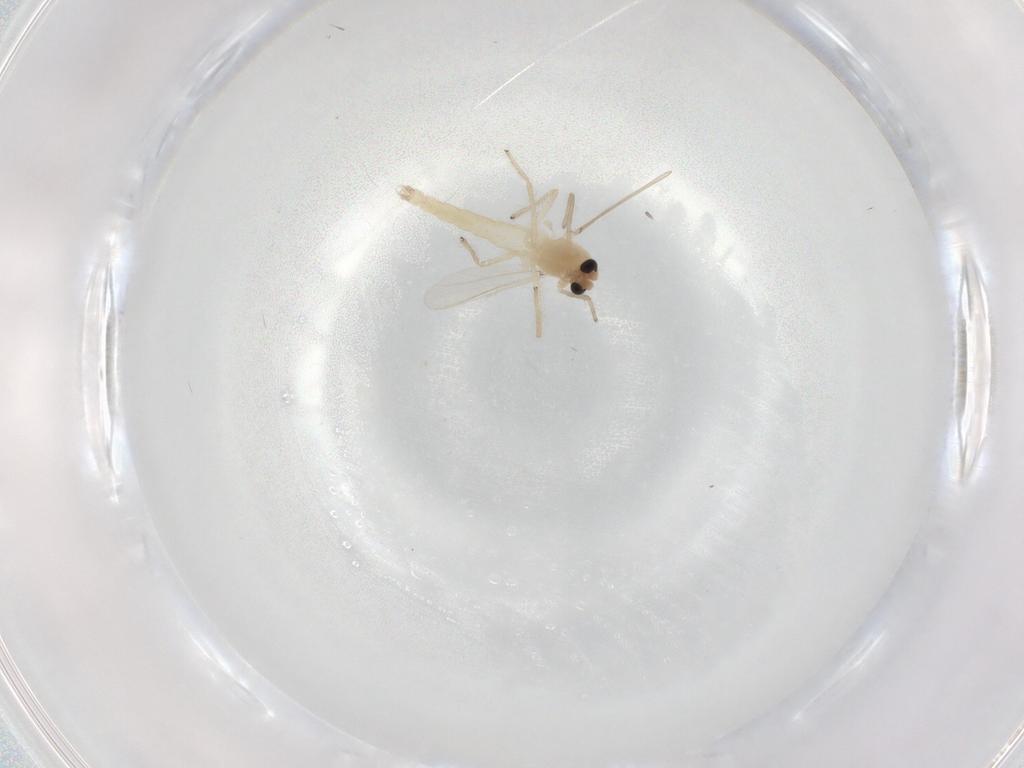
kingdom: Animalia
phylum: Arthropoda
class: Insecta
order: Diptera
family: Chironomidae
